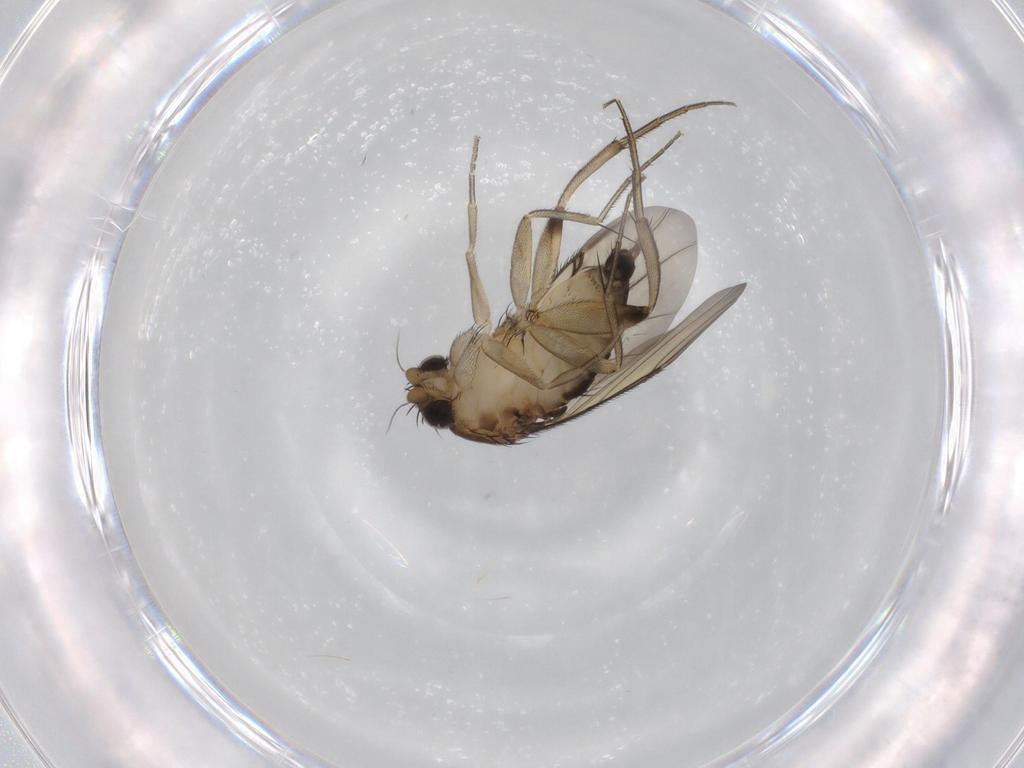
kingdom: Animalia
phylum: Arthropoda
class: Insecta
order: Diptera
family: Phoridae
